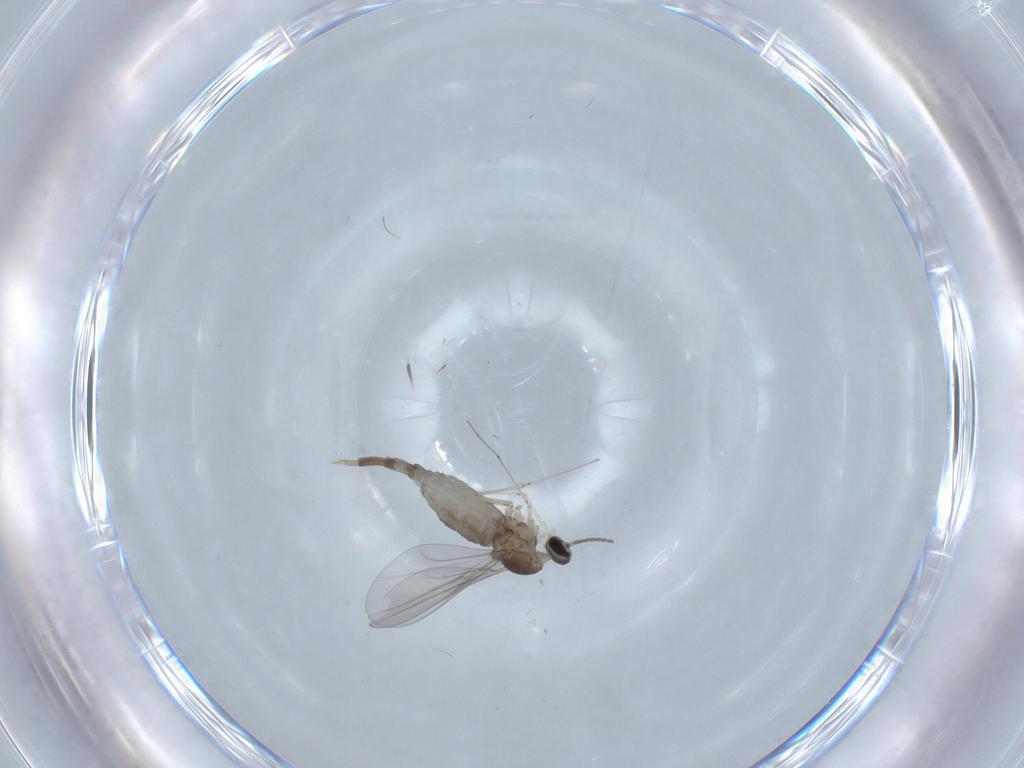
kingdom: Animalia
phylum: Arthropoda
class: Insecta
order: Diptera
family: Cecidomyiidae
